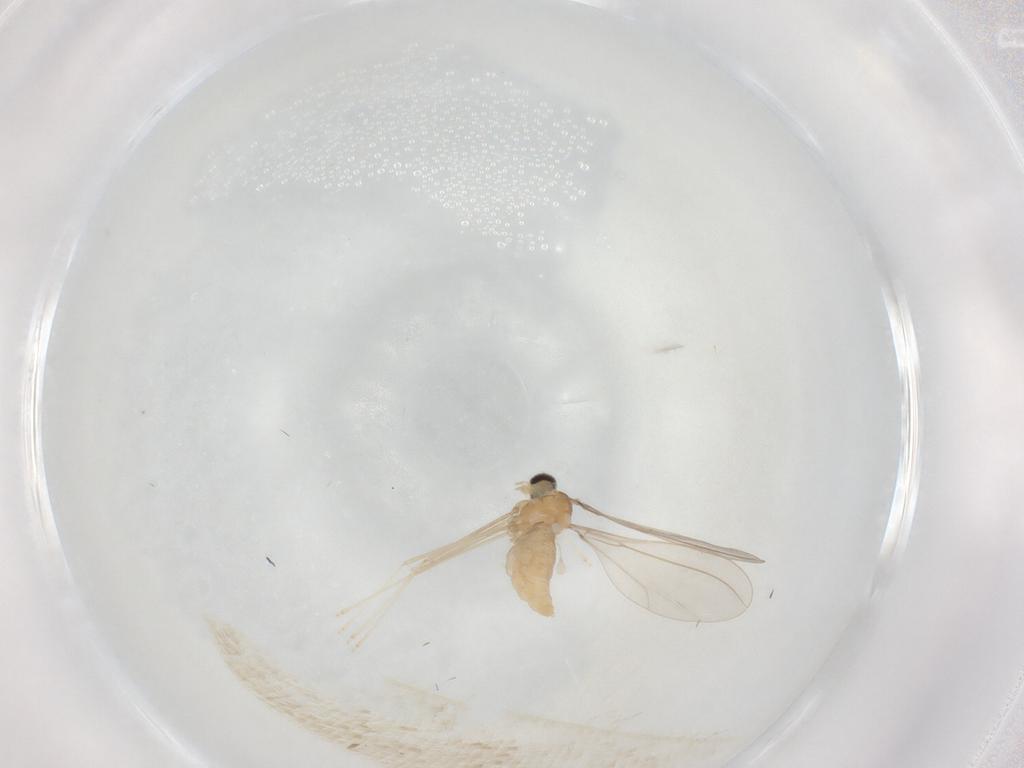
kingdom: Animalia
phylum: Arthropoda
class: Insecta
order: Diptera
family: Lauxaniidae
